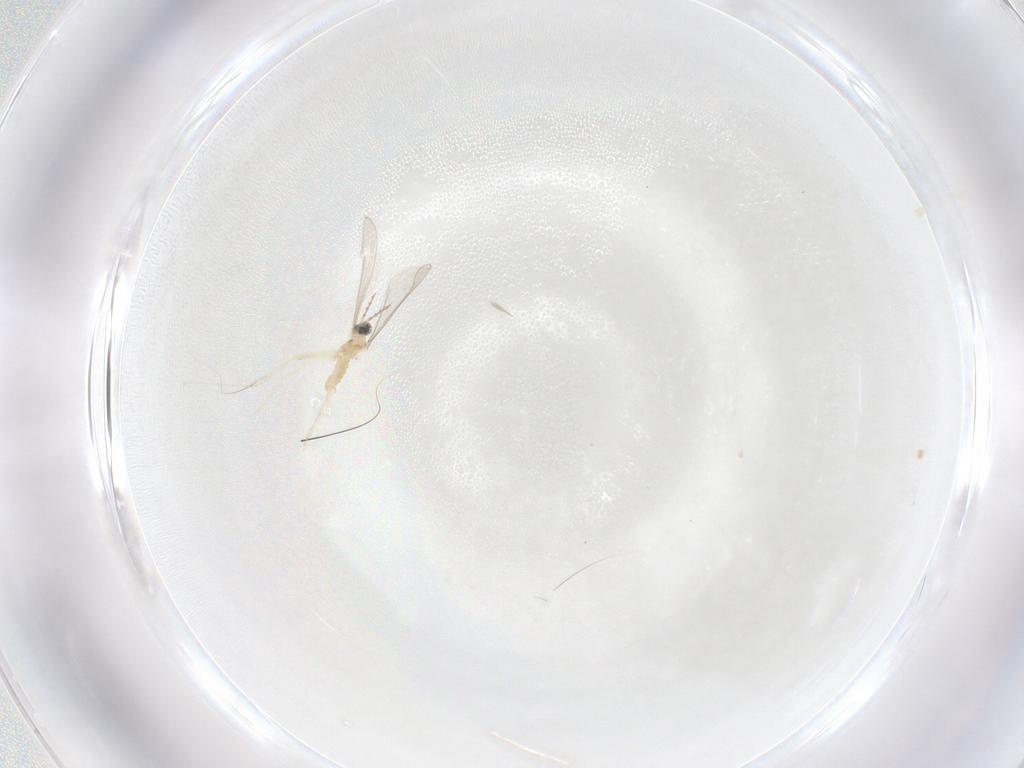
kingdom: Animalia
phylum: Arthropoda
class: Insecta
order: Diptera
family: Cecidomyiidae
